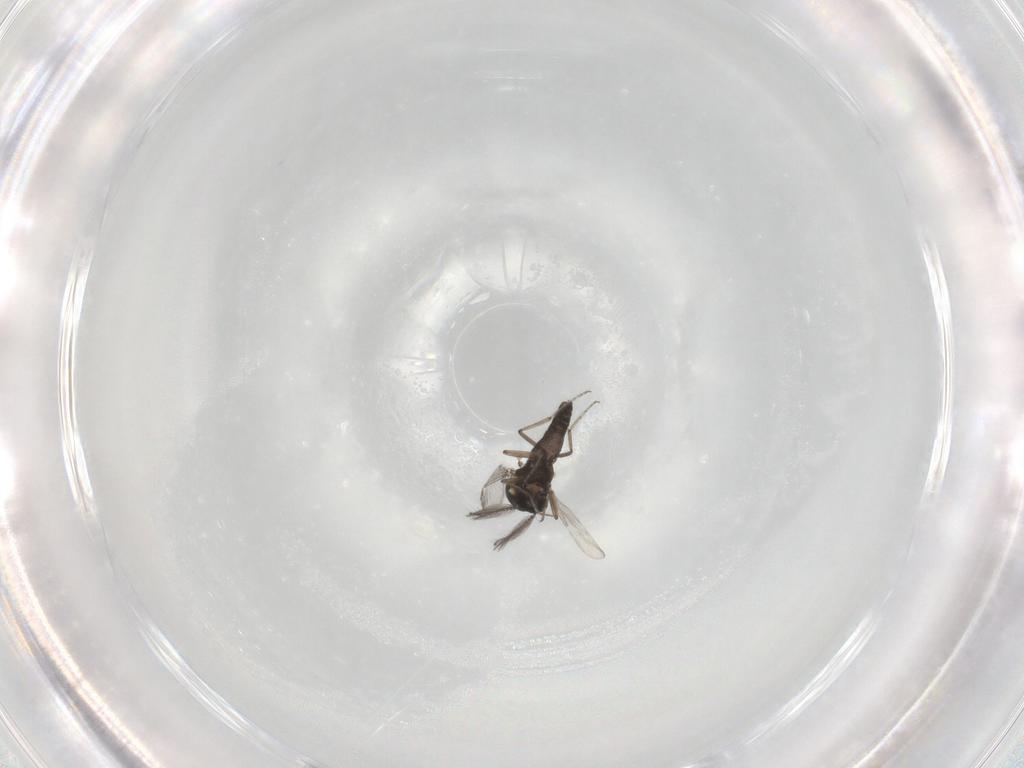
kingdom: Animalia
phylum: Arthropoda
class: Insecta
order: Diptera
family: Ceratopogonidae
